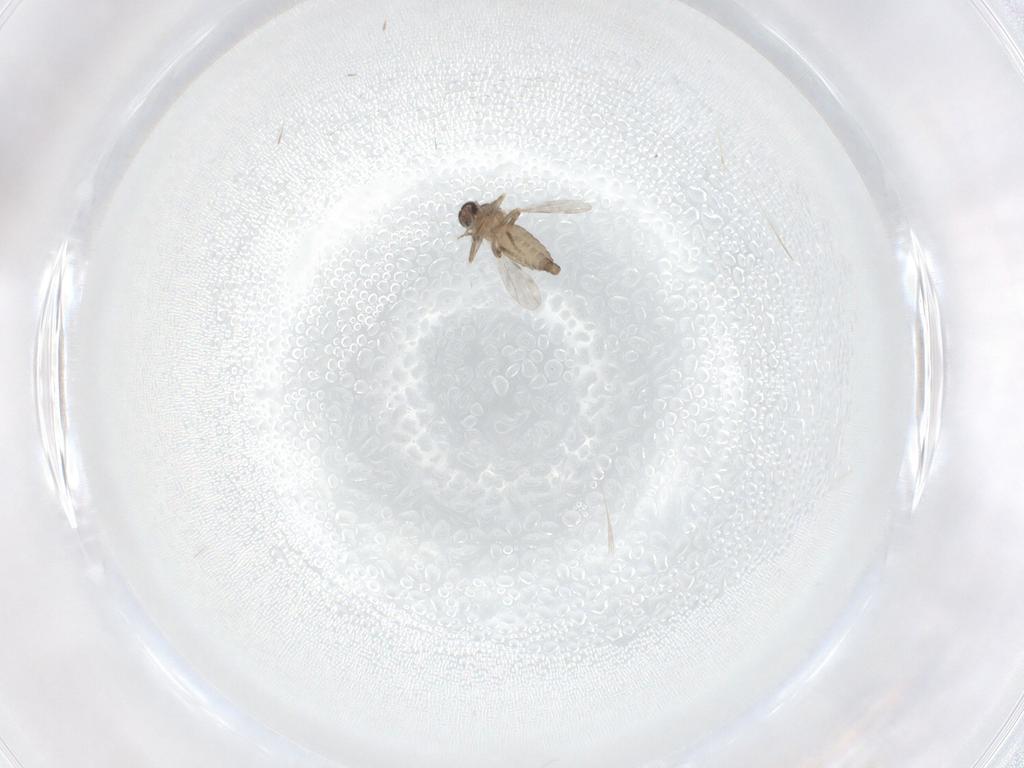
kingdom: Animalia
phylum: Arthropoda
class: Insecta
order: Diptera
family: Ceratopogonidae
